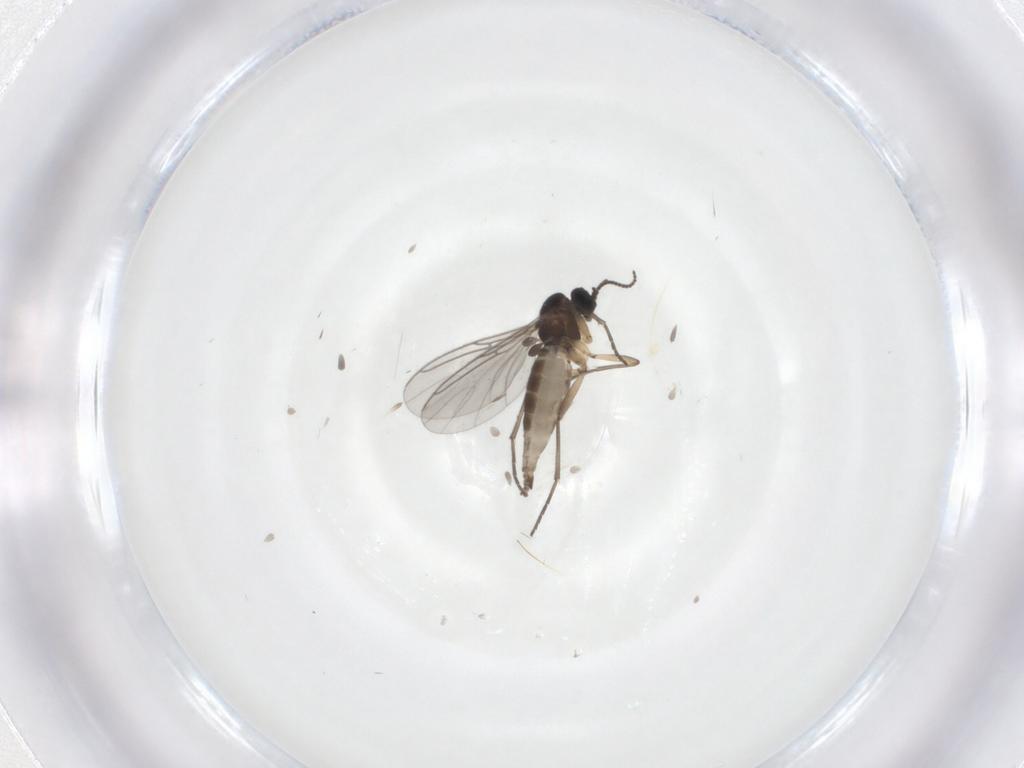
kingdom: Animalia
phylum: Arthropoda
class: Insecta
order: Diptera
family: Sciaridae
